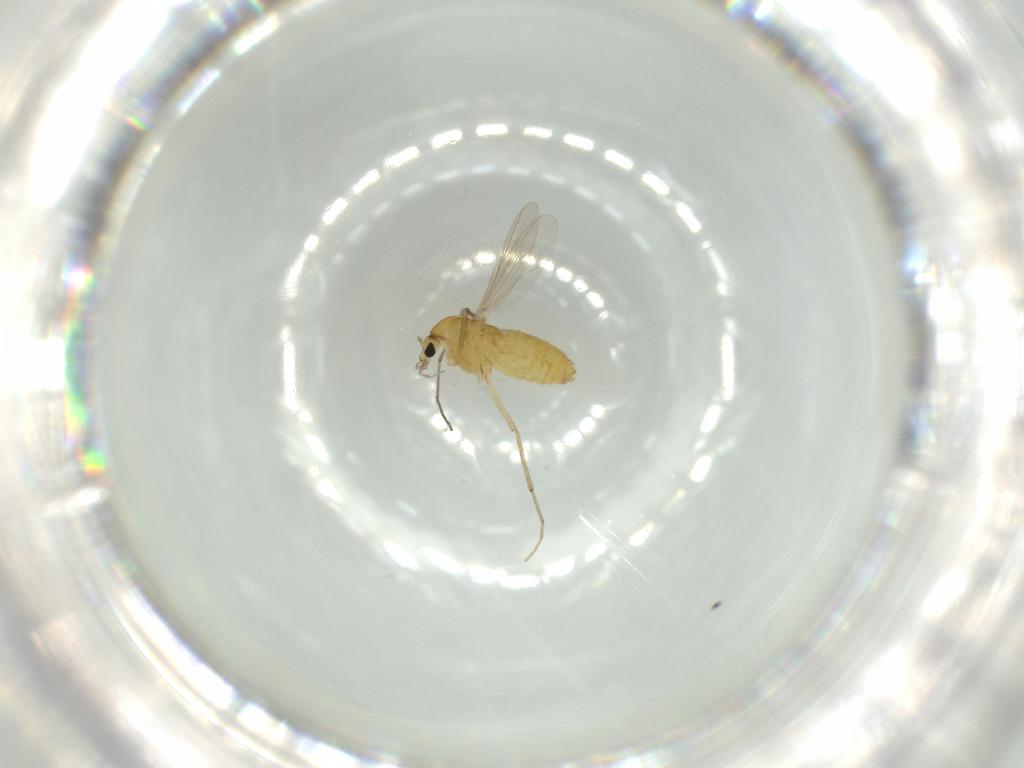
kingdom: Animalia
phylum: Arthropoda
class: Insecta
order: Diptera
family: Chironomidae
